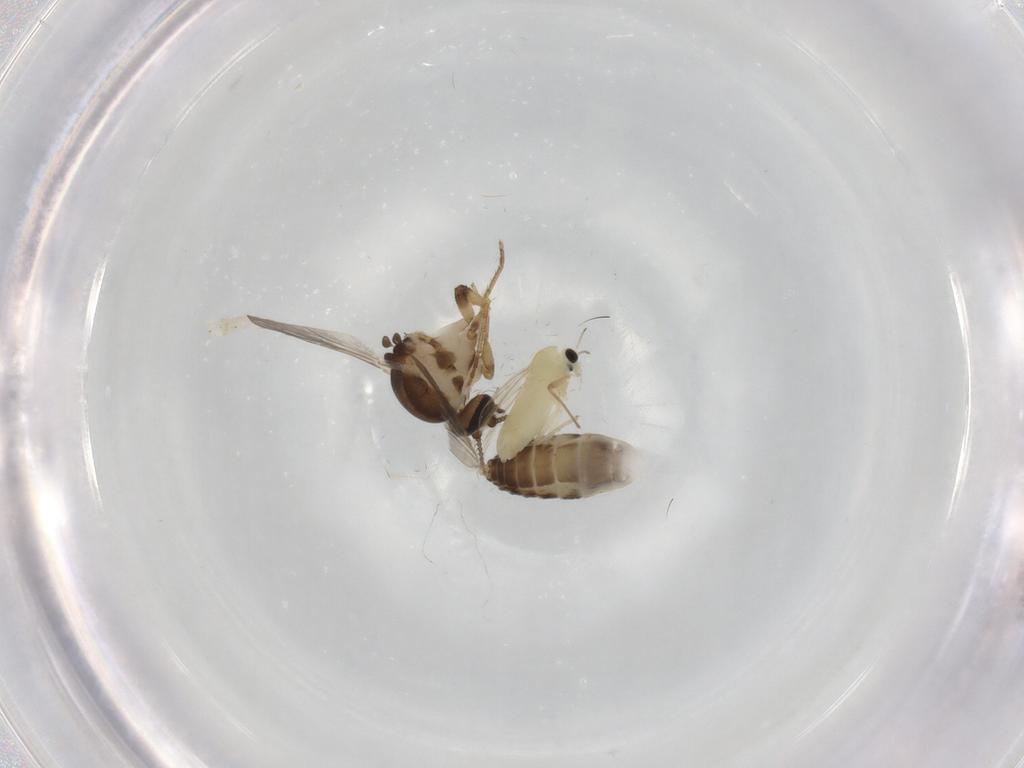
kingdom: Animalia
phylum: Arthropoda
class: Insecta
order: Diptera
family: Ceratopogonidae
